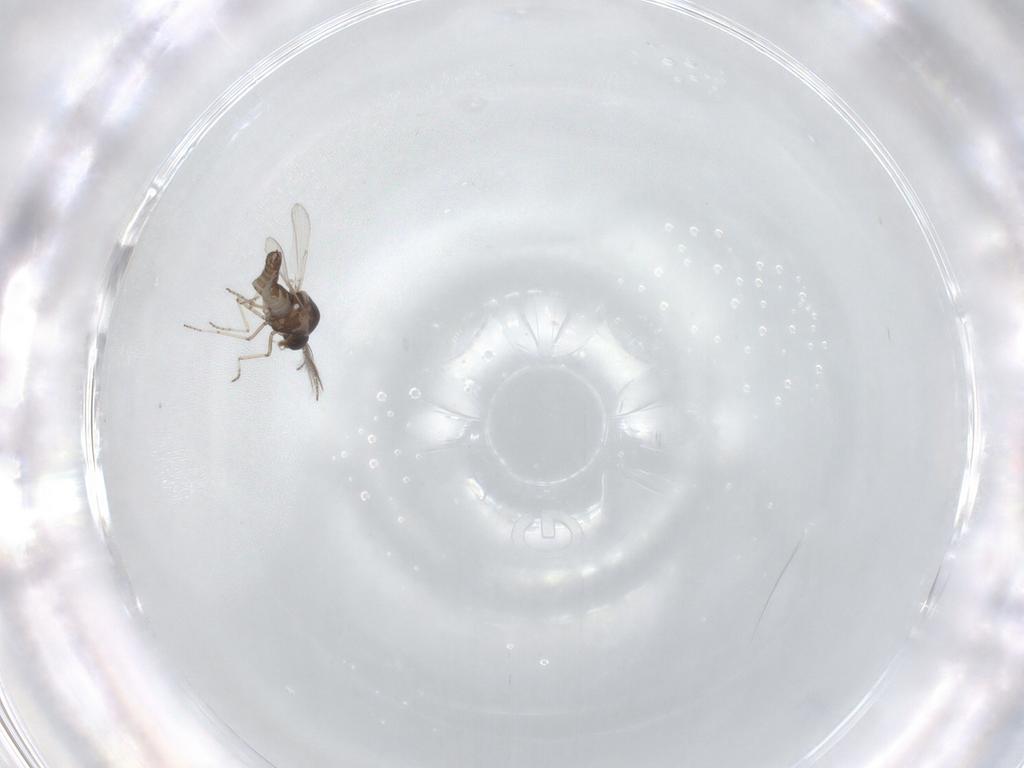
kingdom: Animalia
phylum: Arthropoda
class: Insecta
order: Diptera
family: Ceratopogonidae
